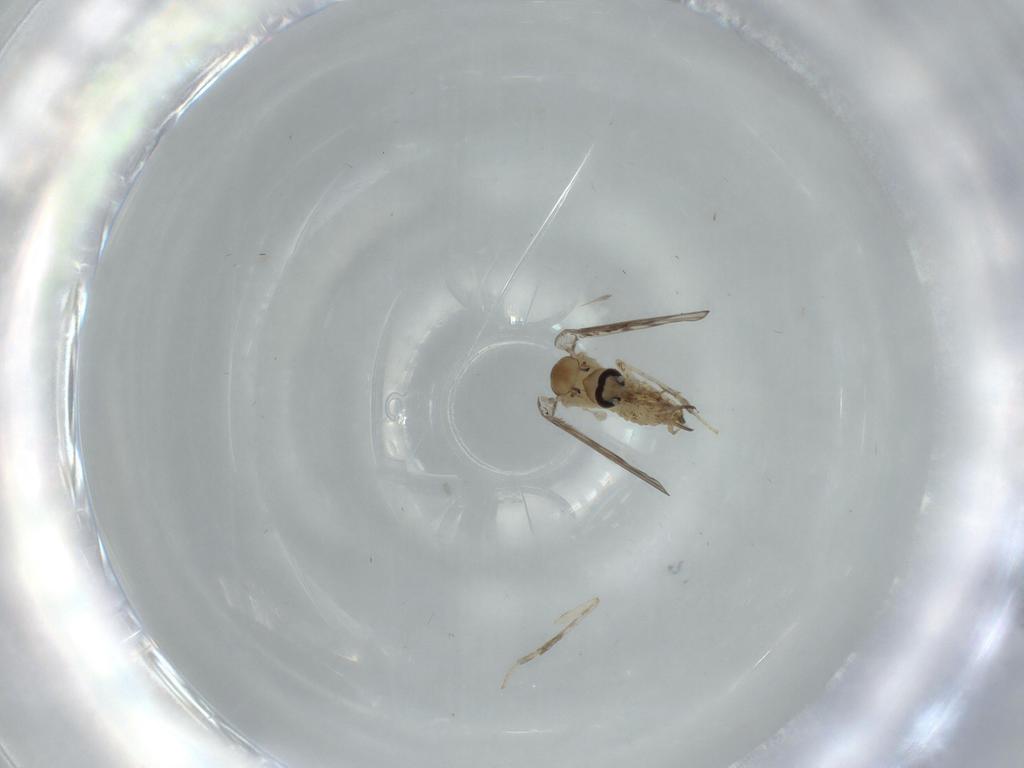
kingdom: Animalia
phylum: Arthropoda
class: Insecta
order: Diptera
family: Psychodidae
